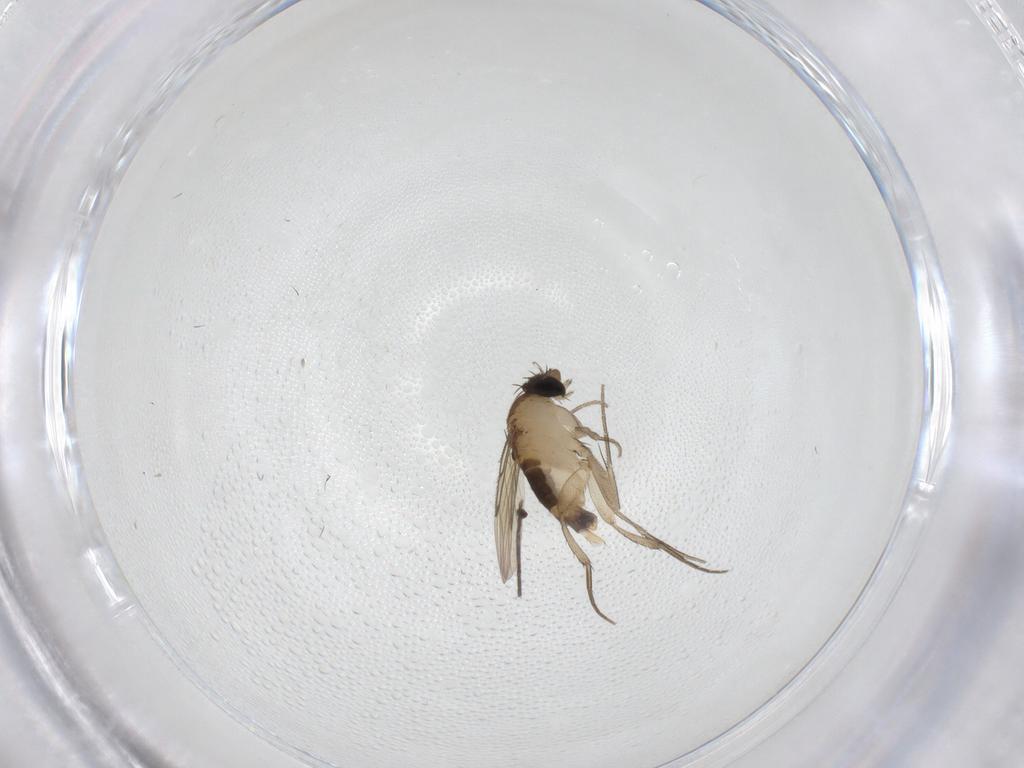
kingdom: Animalia
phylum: Arthropoda
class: Insecta
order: Diptera
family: Sciaridae
